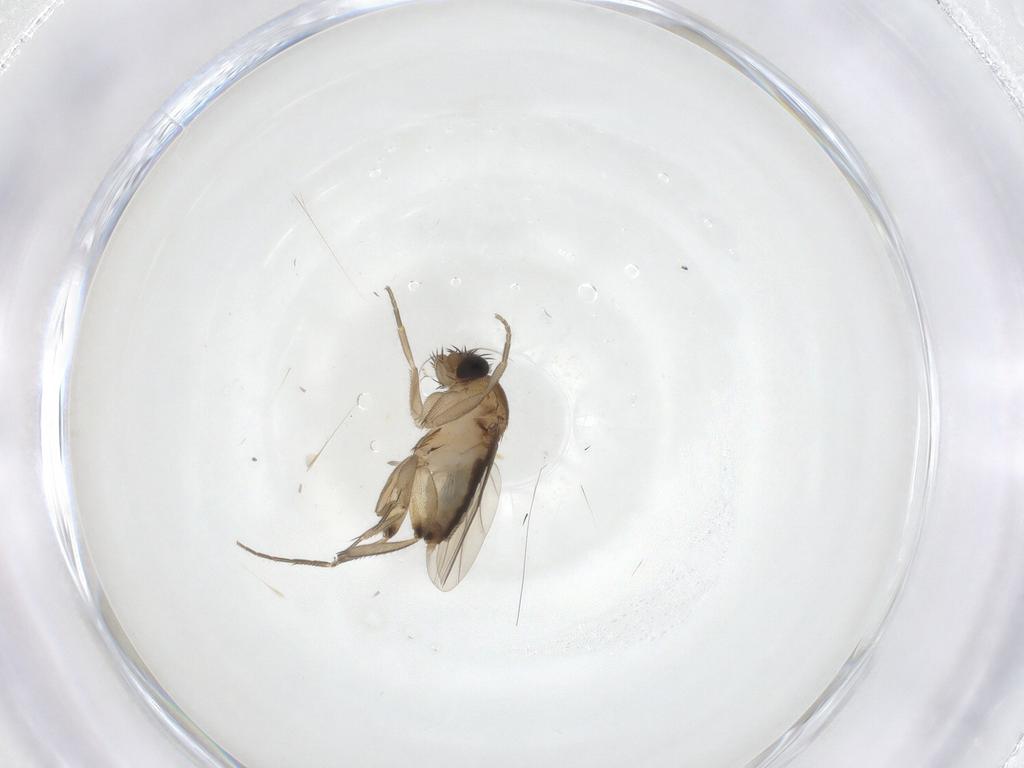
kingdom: Animalia
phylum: Arthropoda
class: Insecta
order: Diptera
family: Phoridae
